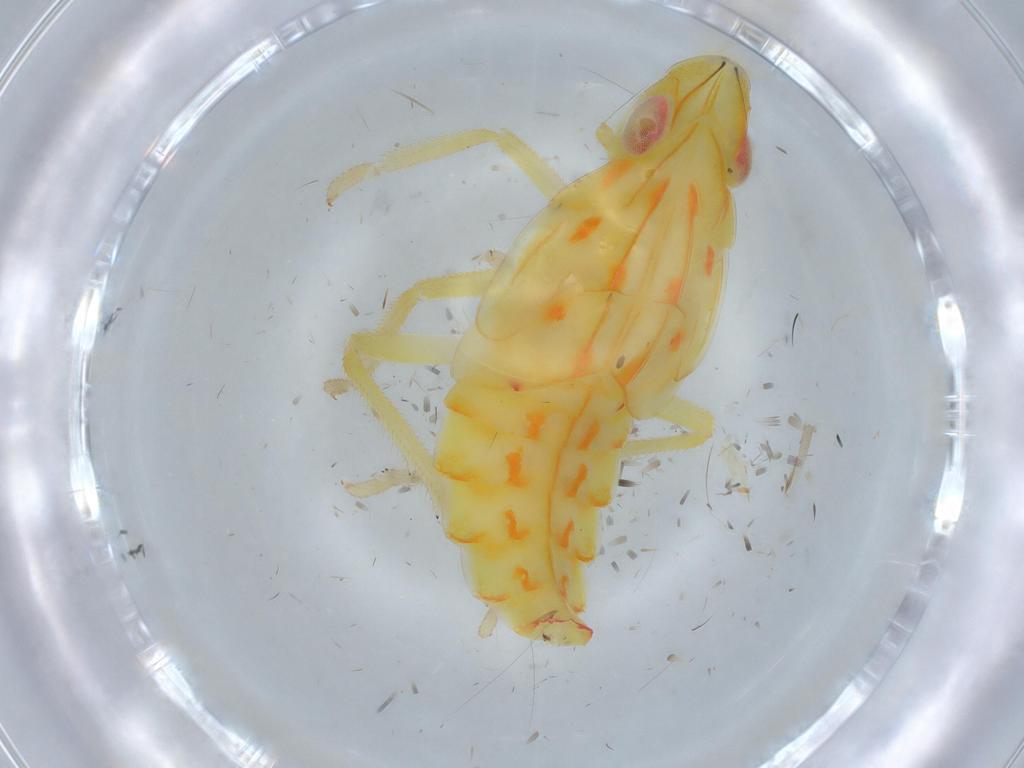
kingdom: Animalia
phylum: Arthropoda
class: Insecta
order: Hemiptera
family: Tropiduchidae
